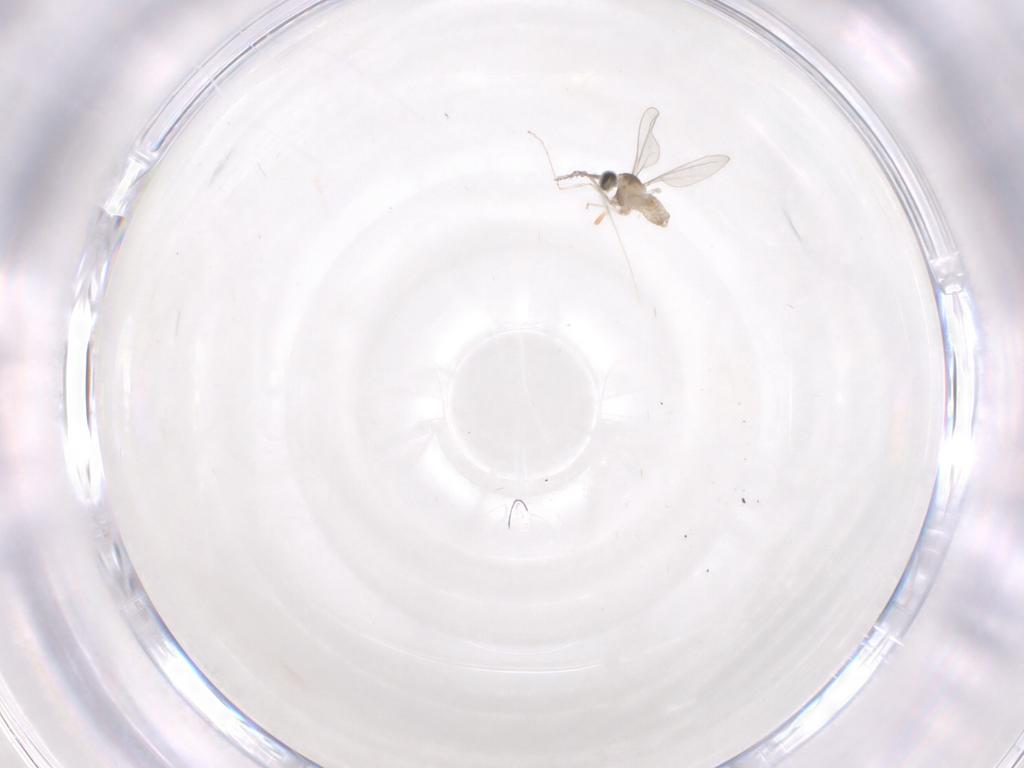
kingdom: Animalia
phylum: Arthropoda
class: Insecta
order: Diptera
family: Cecidomyiidae
